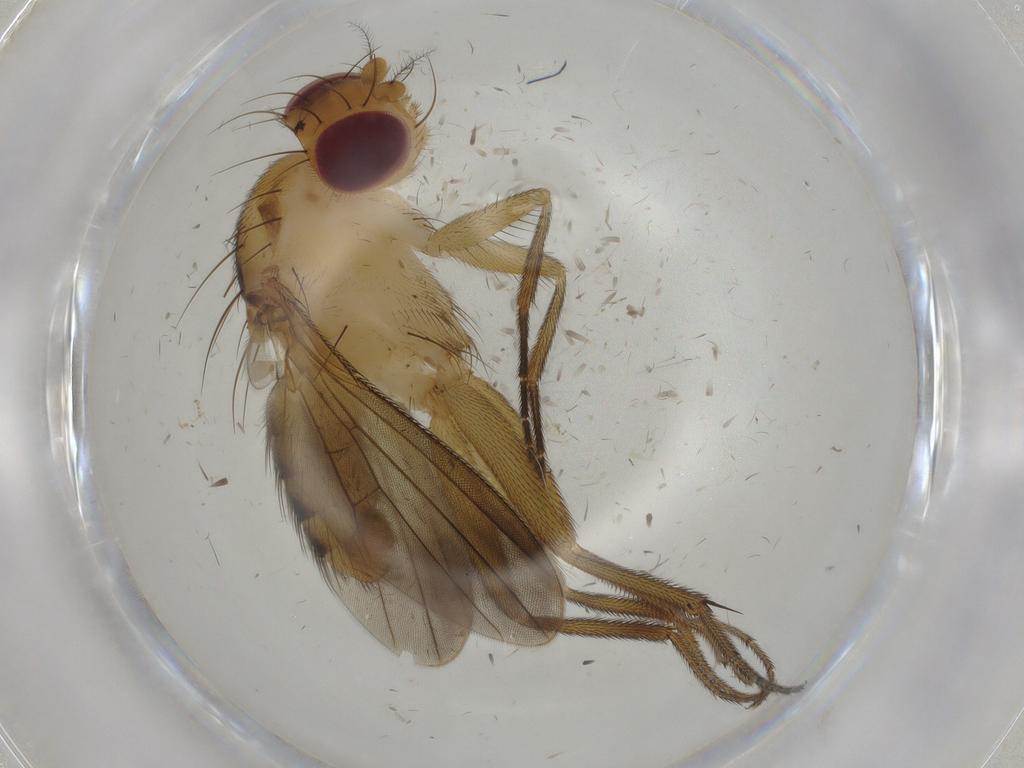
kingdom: Animalia
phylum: Arthropoda
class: Insecta
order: Diptera
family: Clusiidae
